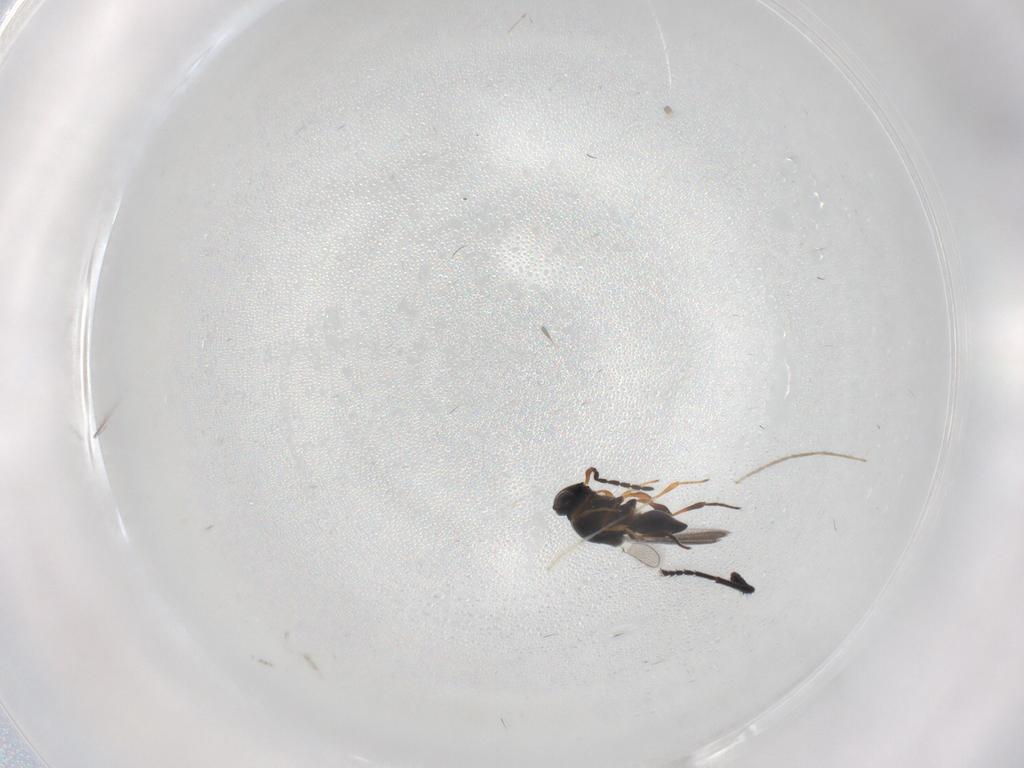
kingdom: Animalia
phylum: Arthropoda
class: Insecta
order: Hymenoptera
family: Platygastridae
